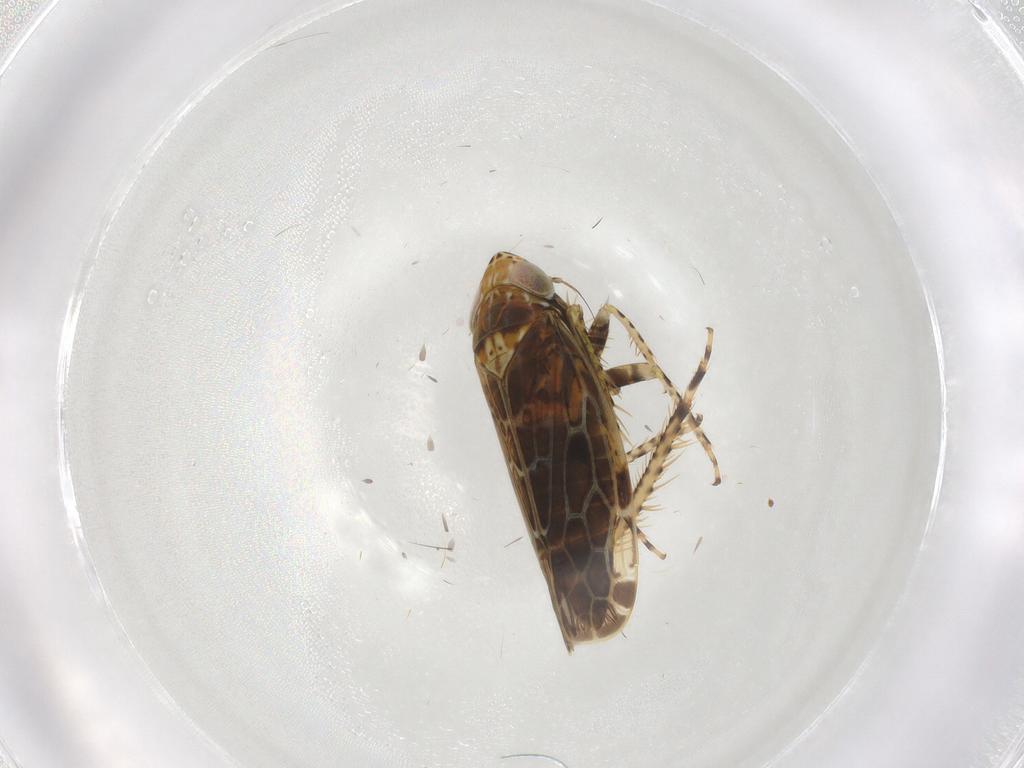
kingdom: Animalia
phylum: Arthropoda
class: Insecta
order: Hemiptera
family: Cicadellidae
